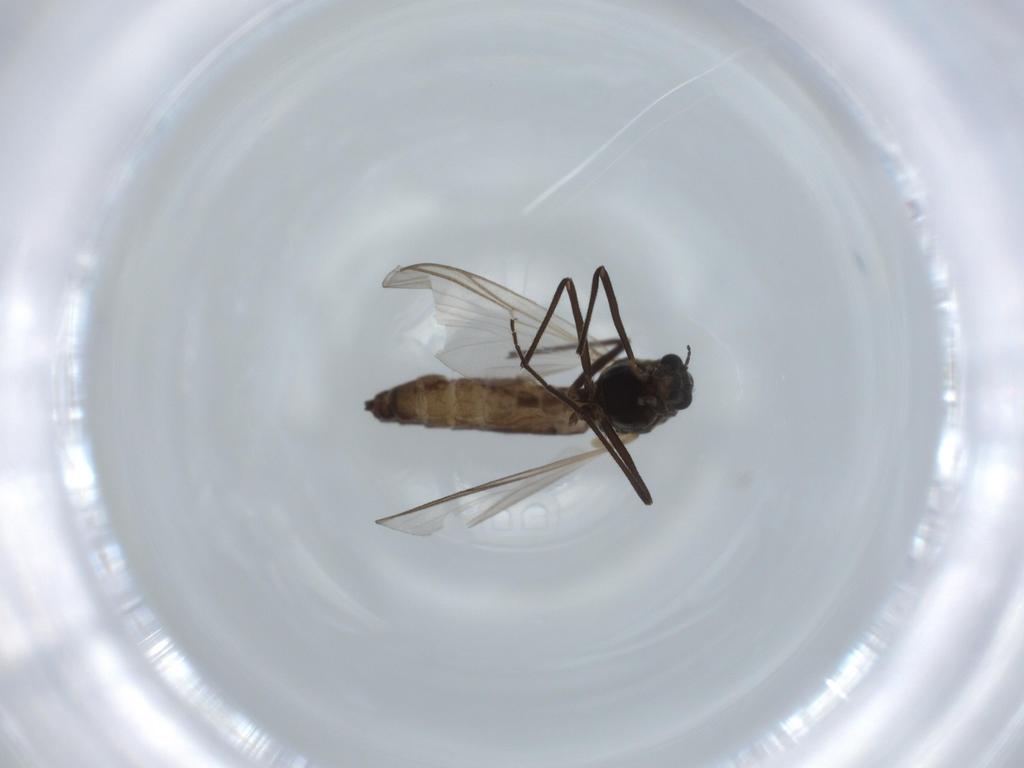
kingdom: Animalia
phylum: Arthropoda
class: Insecta
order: Diptera
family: Chironomidae
